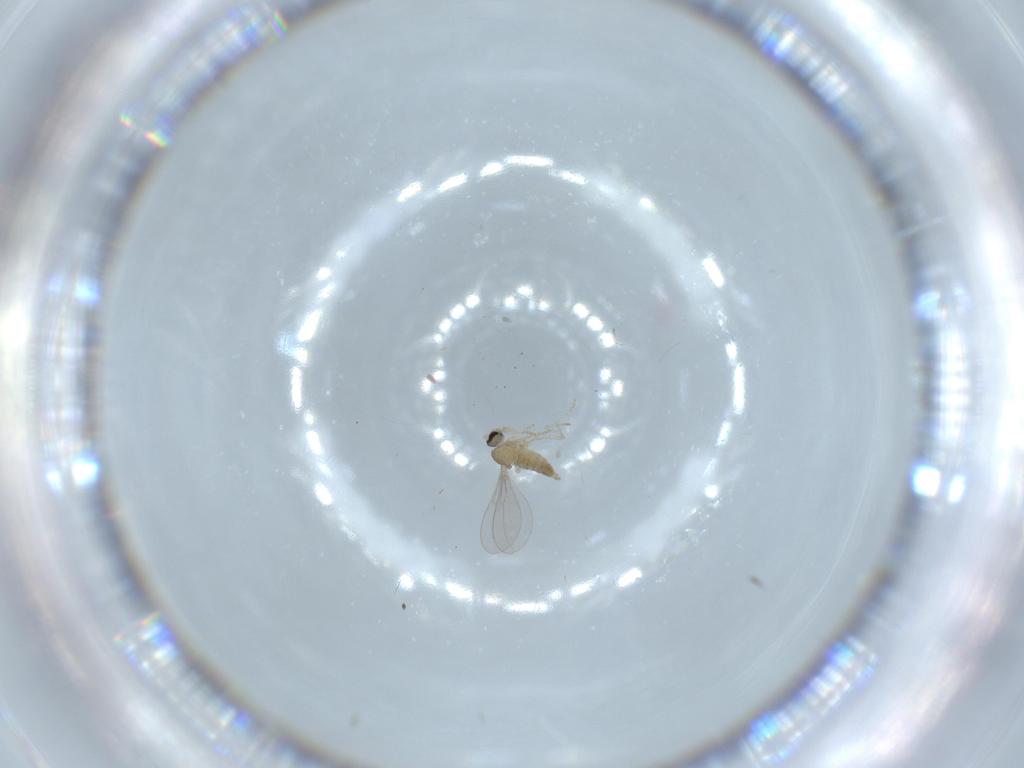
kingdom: Animalia
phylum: Arthropoda
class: Insecta
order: Diptera
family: Cecidomyiidae
